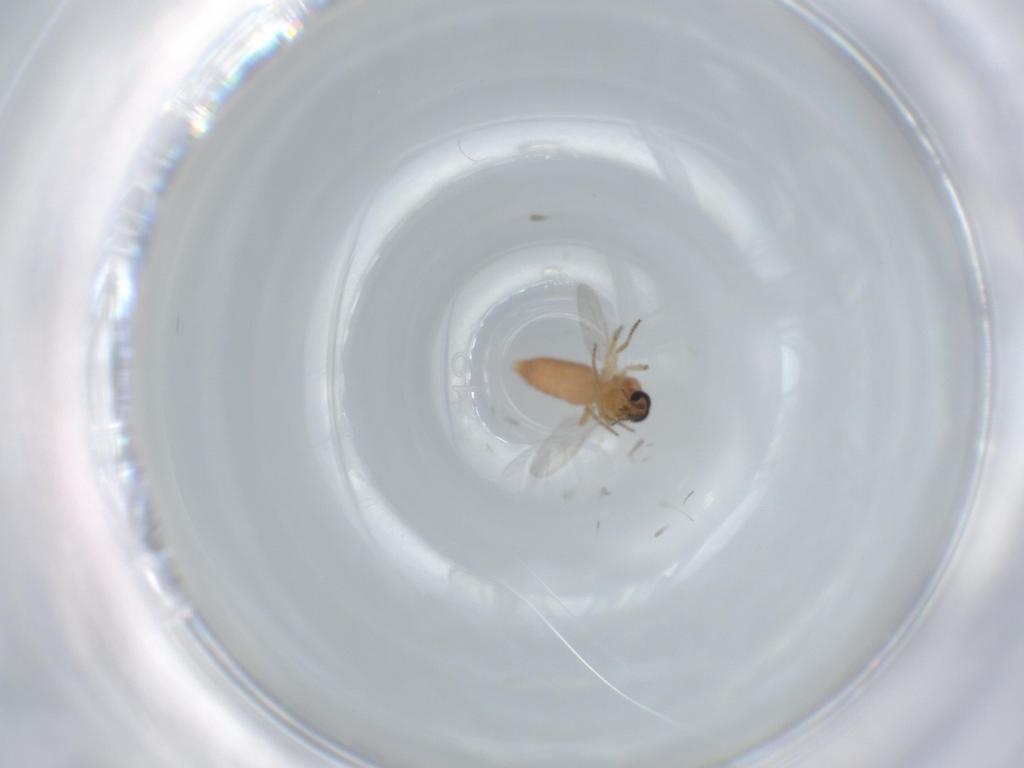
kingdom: Animalia
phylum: Arthropoda
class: Insecta
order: Diptera
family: Ceratopogonidae
